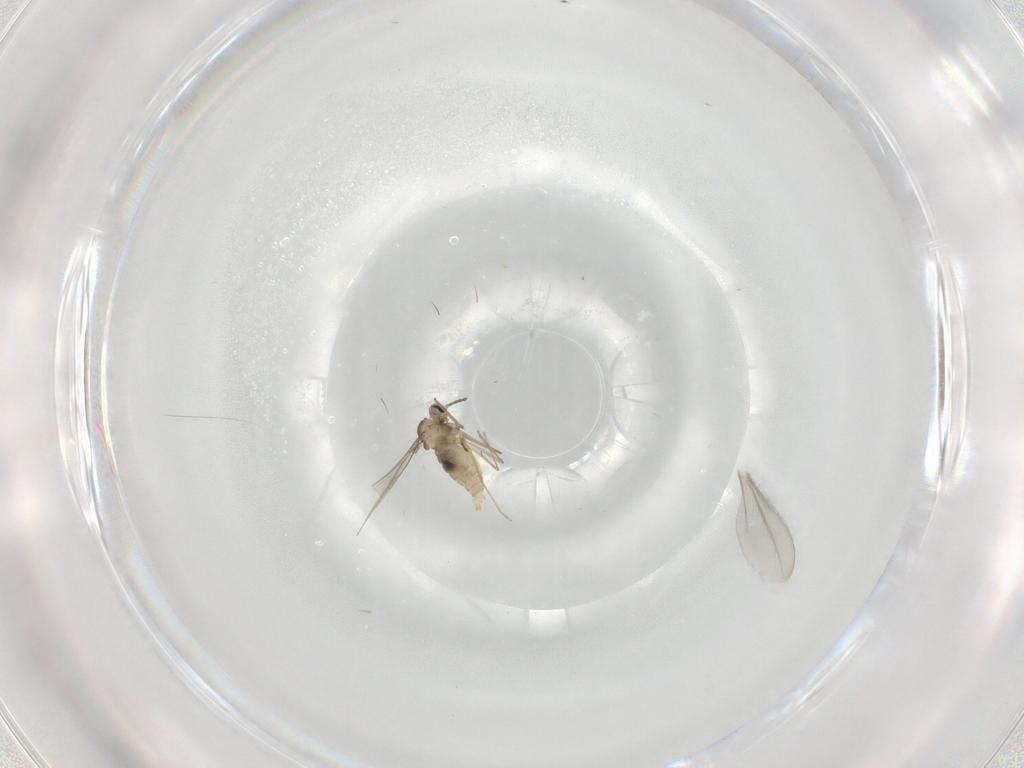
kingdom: Animalia
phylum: Arthropoda
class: Insecta
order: Diptera
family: Cecidomyiidae
